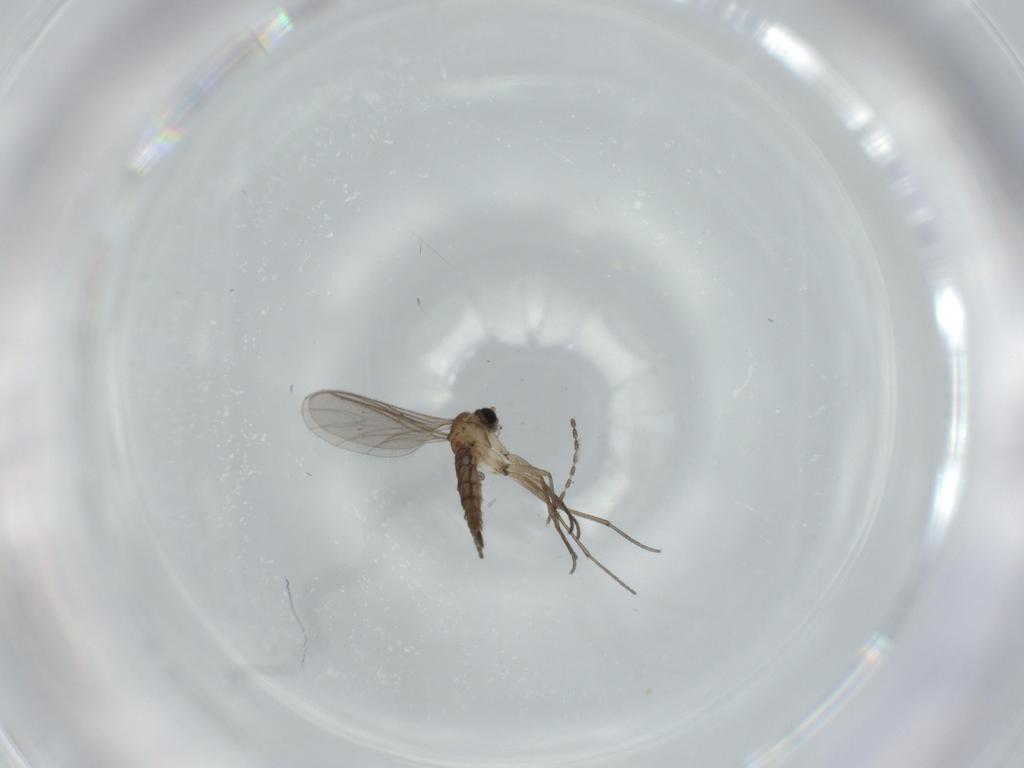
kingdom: Animalia
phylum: Arthropoda
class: Insecta
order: Diptera
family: Sciaridae
